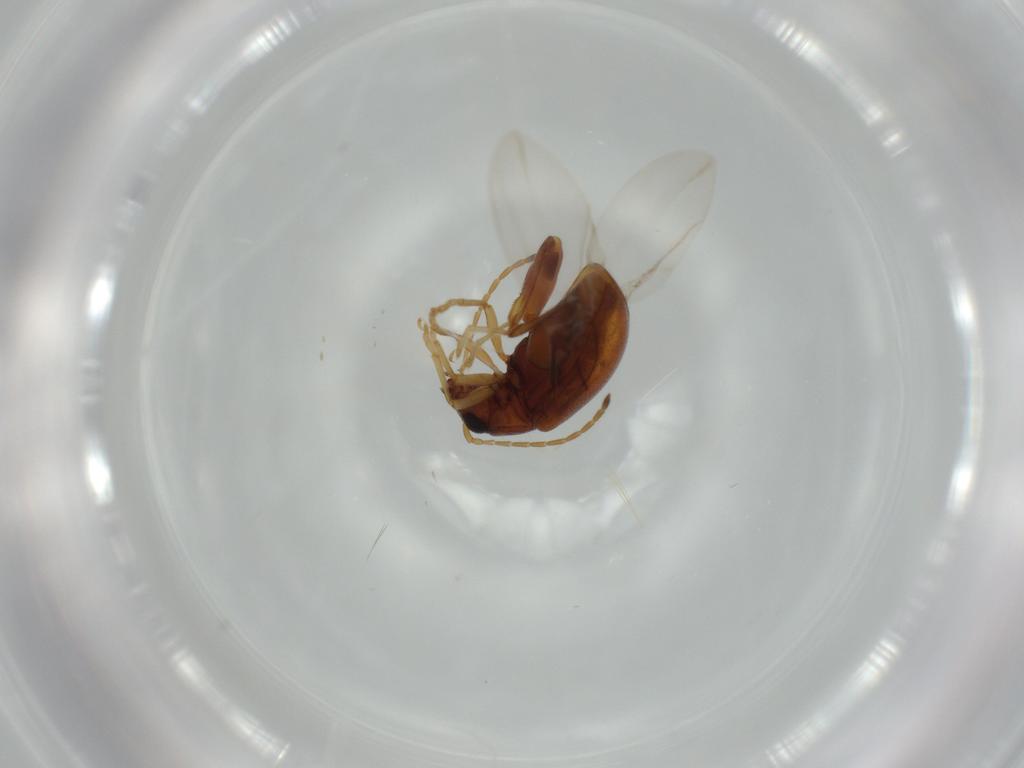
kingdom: Animalia
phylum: Arthropoda
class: Insecta
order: Coleoptera
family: Chrysomelidae
